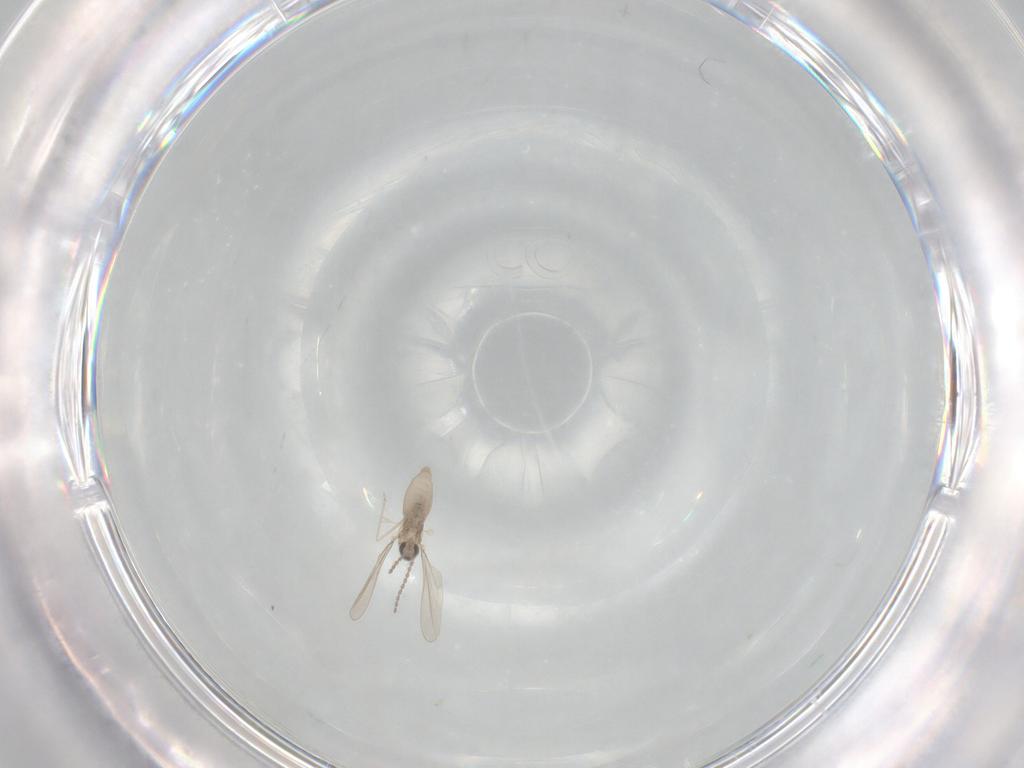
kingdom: Animalia
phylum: Arthropoda
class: Insecta
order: Diptera
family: Cecidomyiidae
